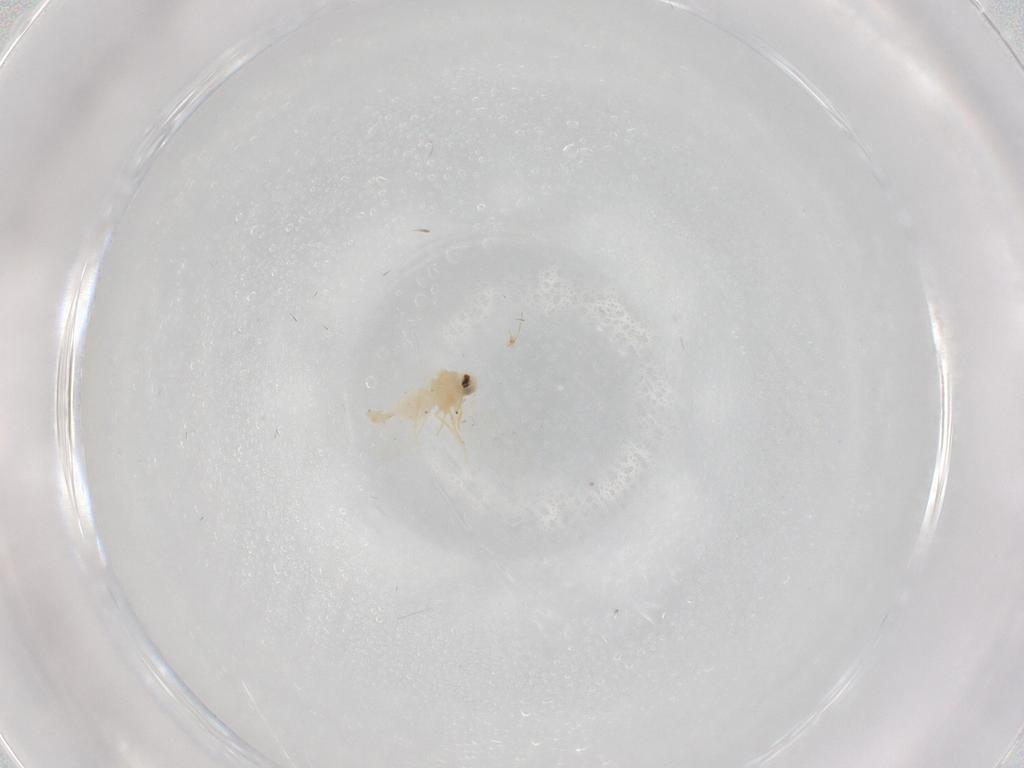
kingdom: Animalia
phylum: Arthropoda
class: Insecta
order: Hemiptera
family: Aleyrodidae
